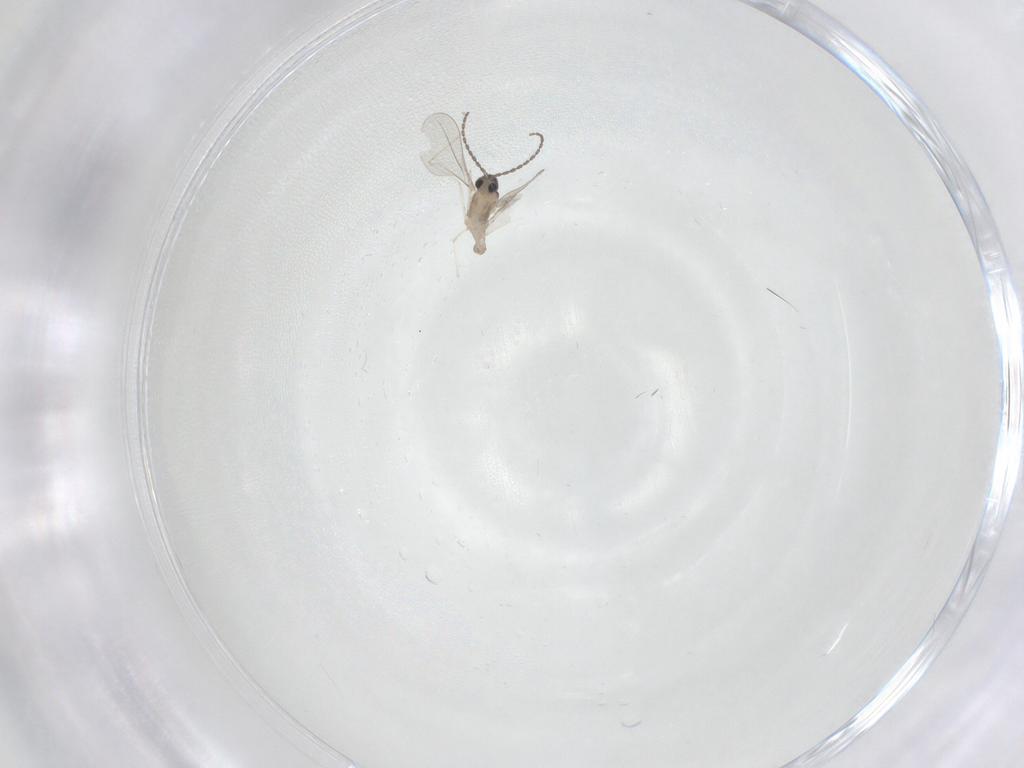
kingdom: Animalia
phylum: Arthropoda
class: Insecta
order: Diptera
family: Cecidomyiidae
